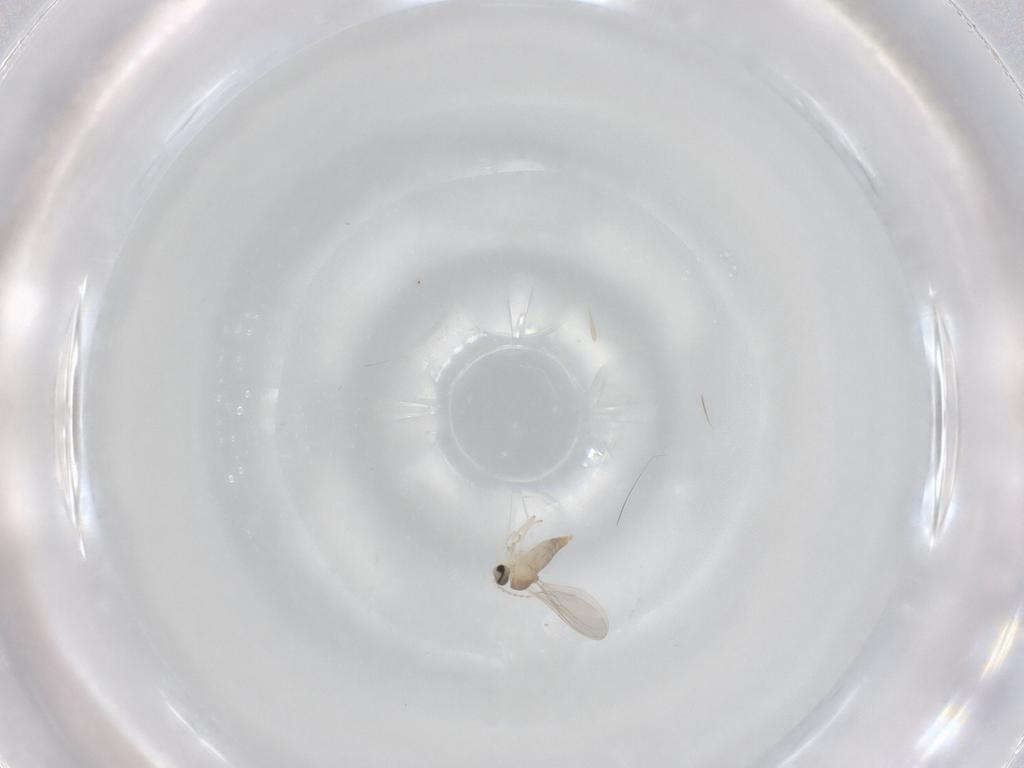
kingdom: Animalia
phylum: Arthropoda
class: Insecta
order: Diptera
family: Cecidomyiidae
